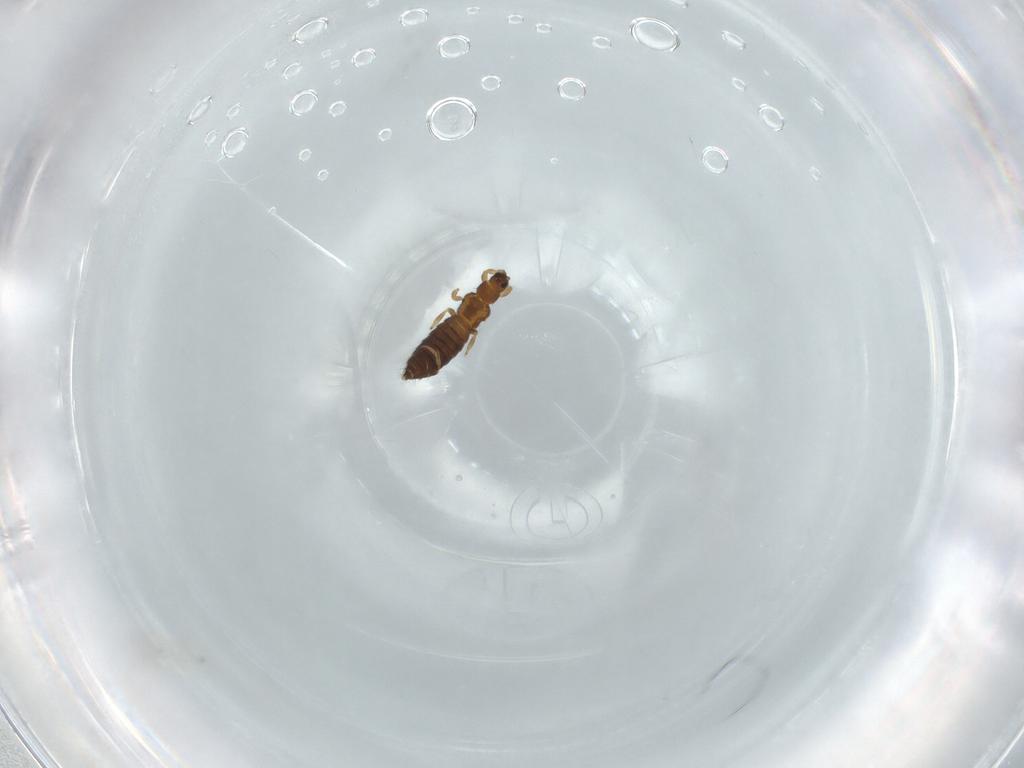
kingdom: Animalia
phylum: Arthropoda
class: Insecta
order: Thysanoptera
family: Thripidae
